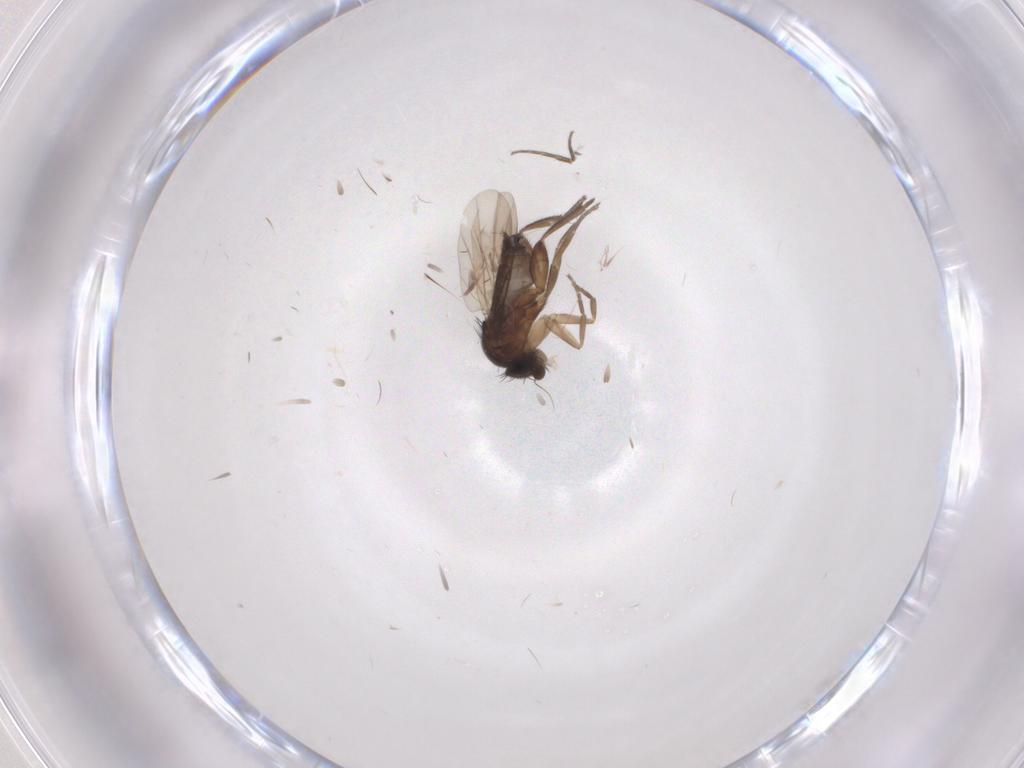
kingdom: Animalia
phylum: Arthropoda
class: Insecta
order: Diptera
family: Phoridae
